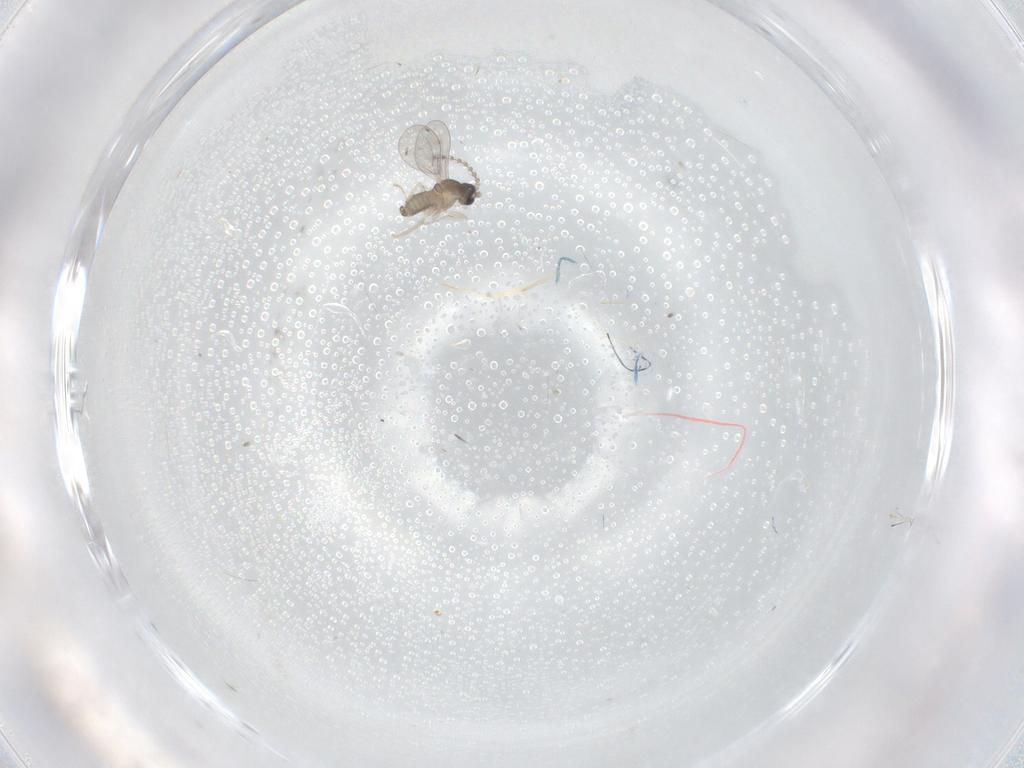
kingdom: Animalia
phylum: Arthropoda
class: Insecta
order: Diptera
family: Cecidomyiidae
